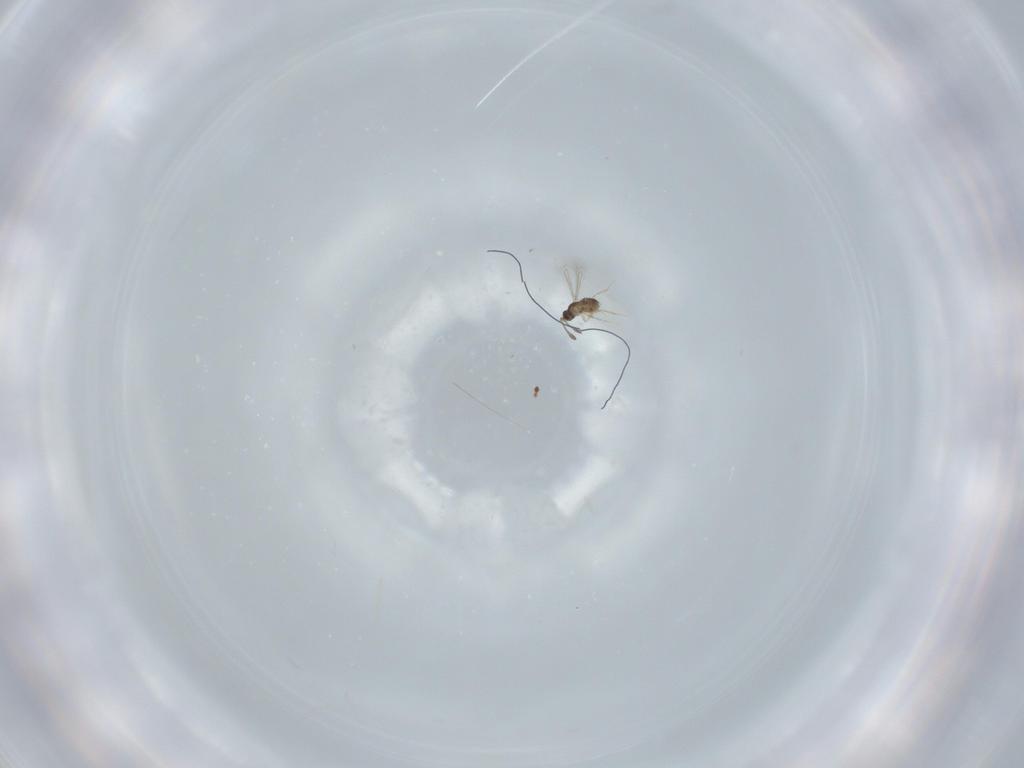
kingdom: Animalia
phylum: Arthropoda
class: Insecta
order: Hymenoptera
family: Mymaridae
